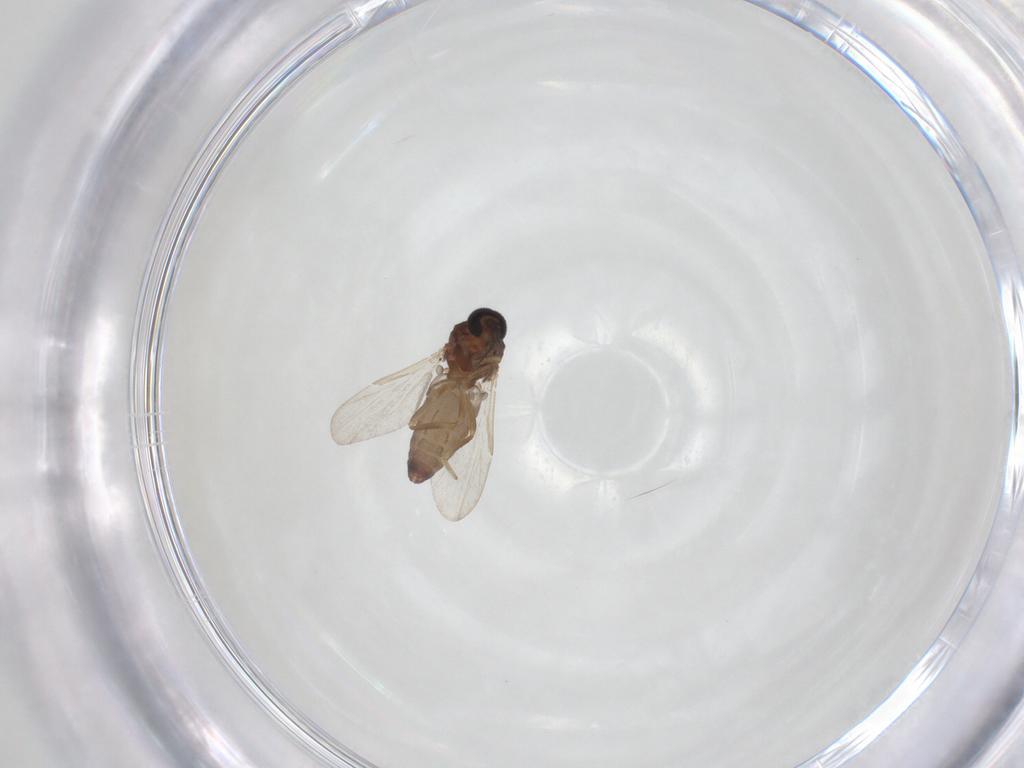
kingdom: Animalia
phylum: Arthropoda
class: Insecta
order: Diptera
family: Ceratopogonidae
